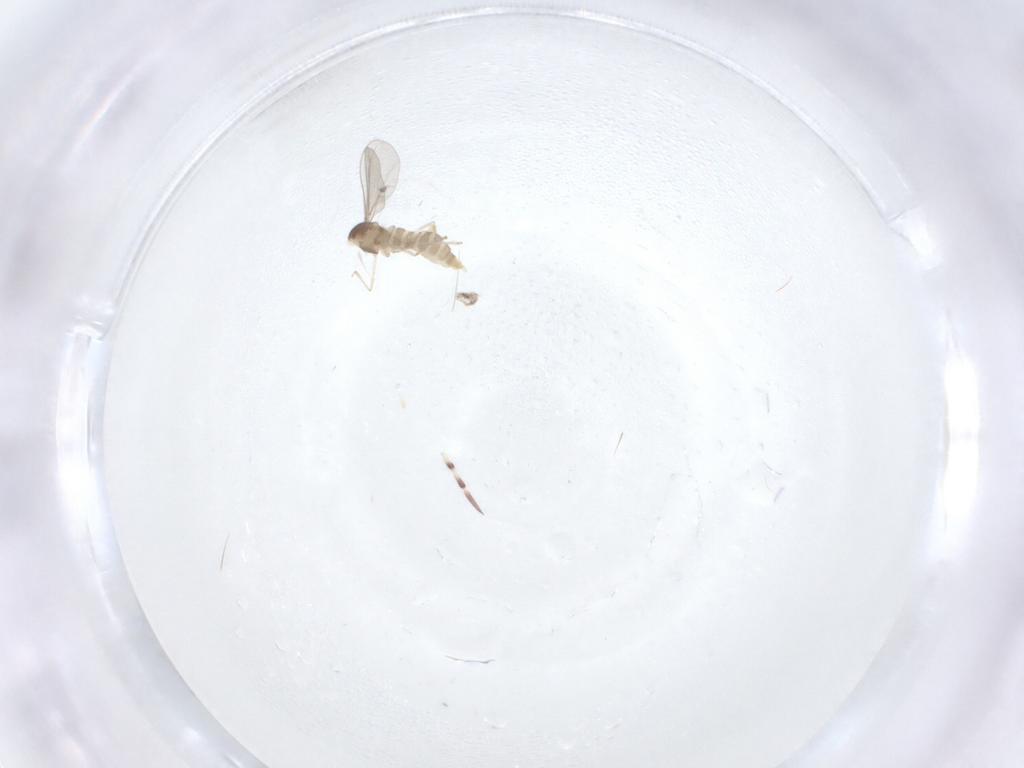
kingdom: Animalia
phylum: Arthropoda
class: Insecta
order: Diptera
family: Cecidomyiidae
